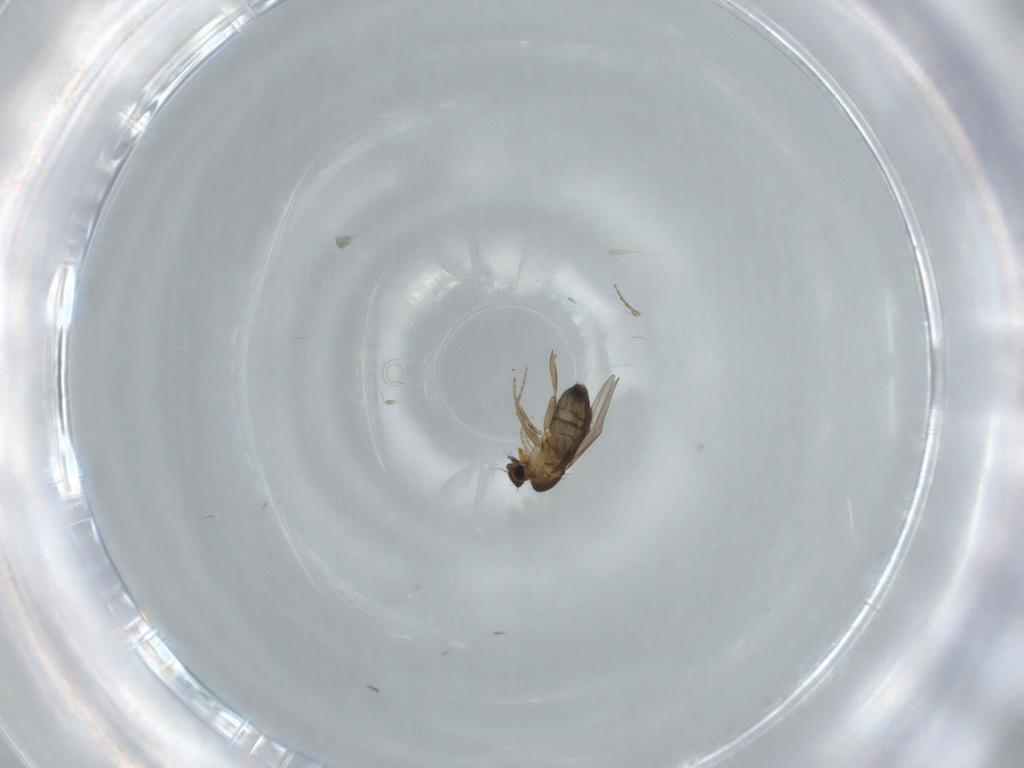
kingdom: Animalia
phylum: Arthropoda
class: Insecta
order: Diptera
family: Phoridae
